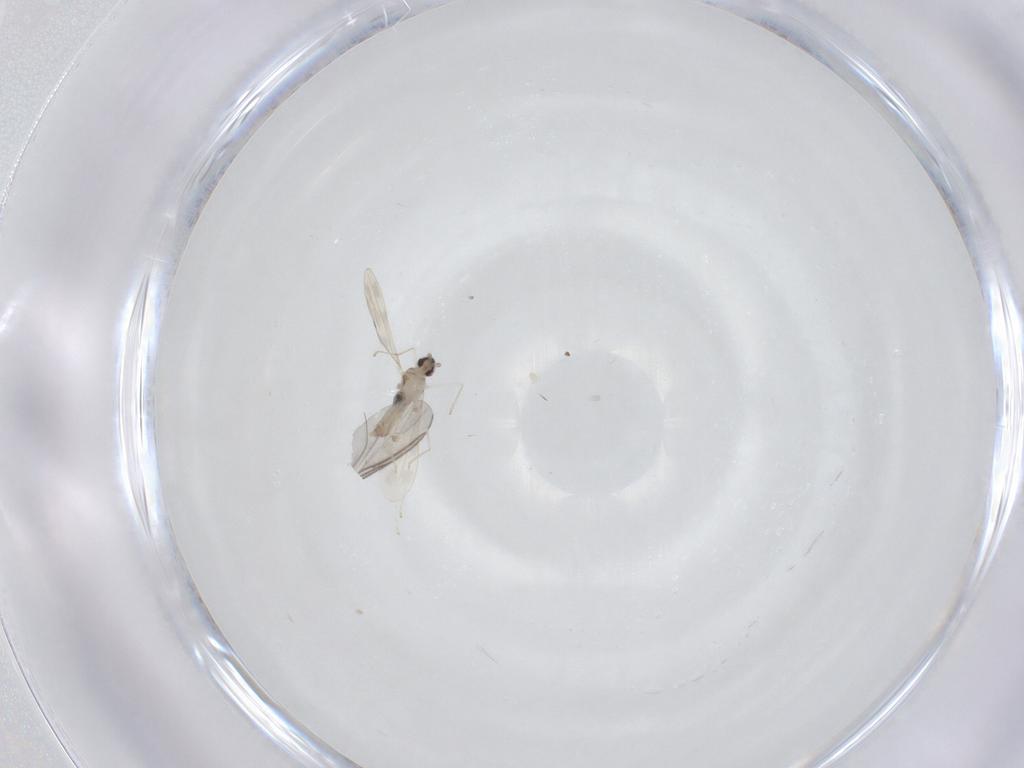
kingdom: Animalia
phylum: Arthropoda
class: Insecta
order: Diptera
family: Cecidomyiidae
